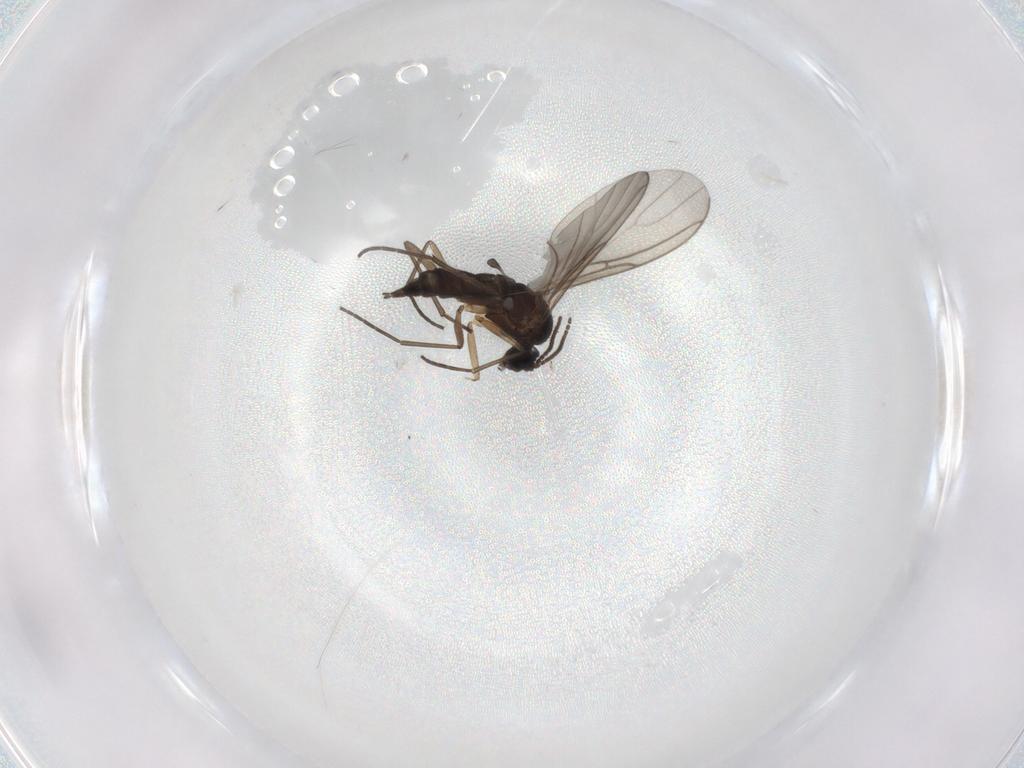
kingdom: Animalia
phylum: Arthropoda
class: Insecta
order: Diptera
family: Sciaridae
